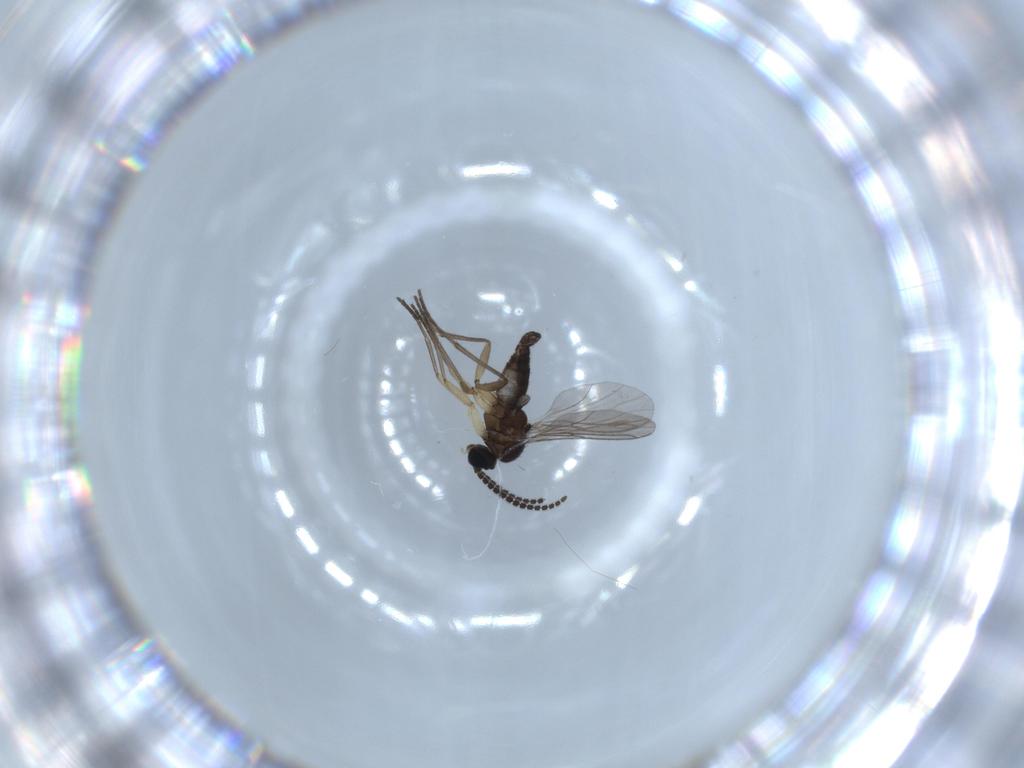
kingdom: Animalia
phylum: Arthropoda
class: Insecta
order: Diptera
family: Sciaridae
